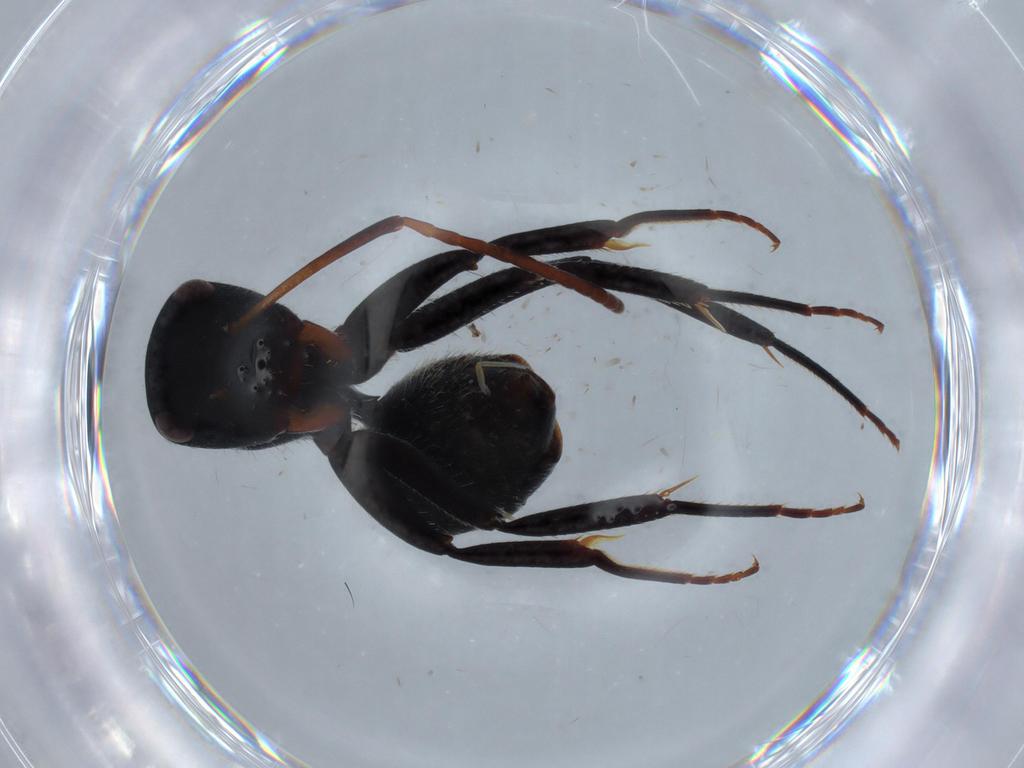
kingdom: Animalia
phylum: Arthropoda
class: Insecta
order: Hymenoptera
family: Formicidae
